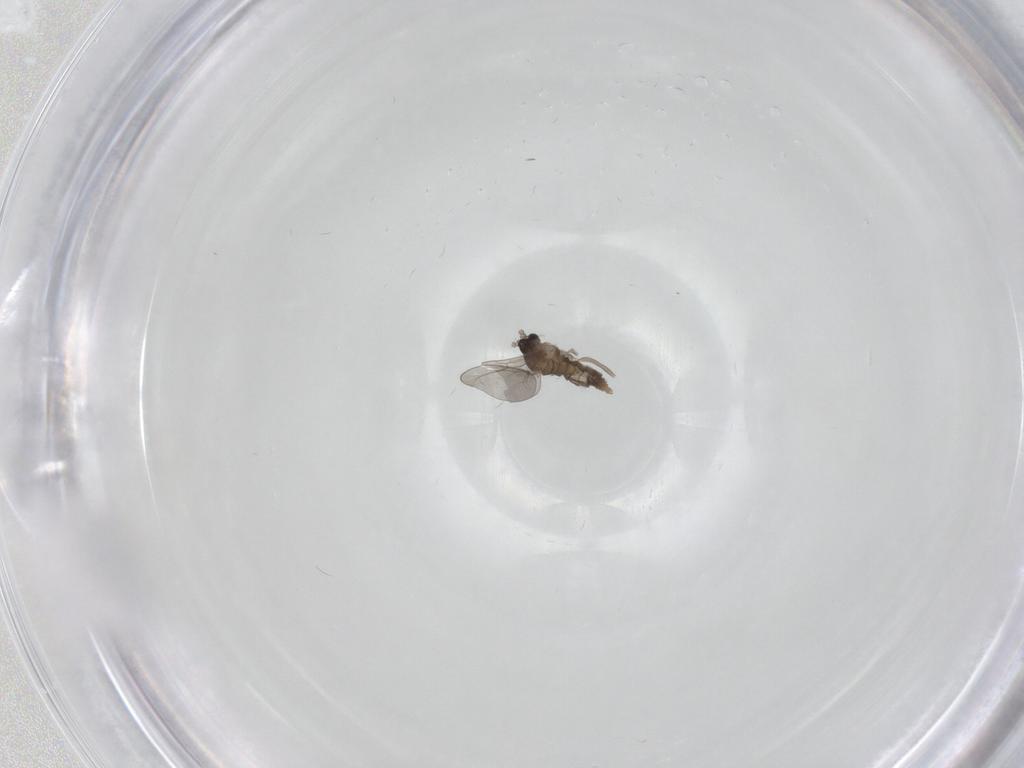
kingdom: Animalia
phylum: Arthropoda
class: Insecta
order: Diptera
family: Chironomidae
